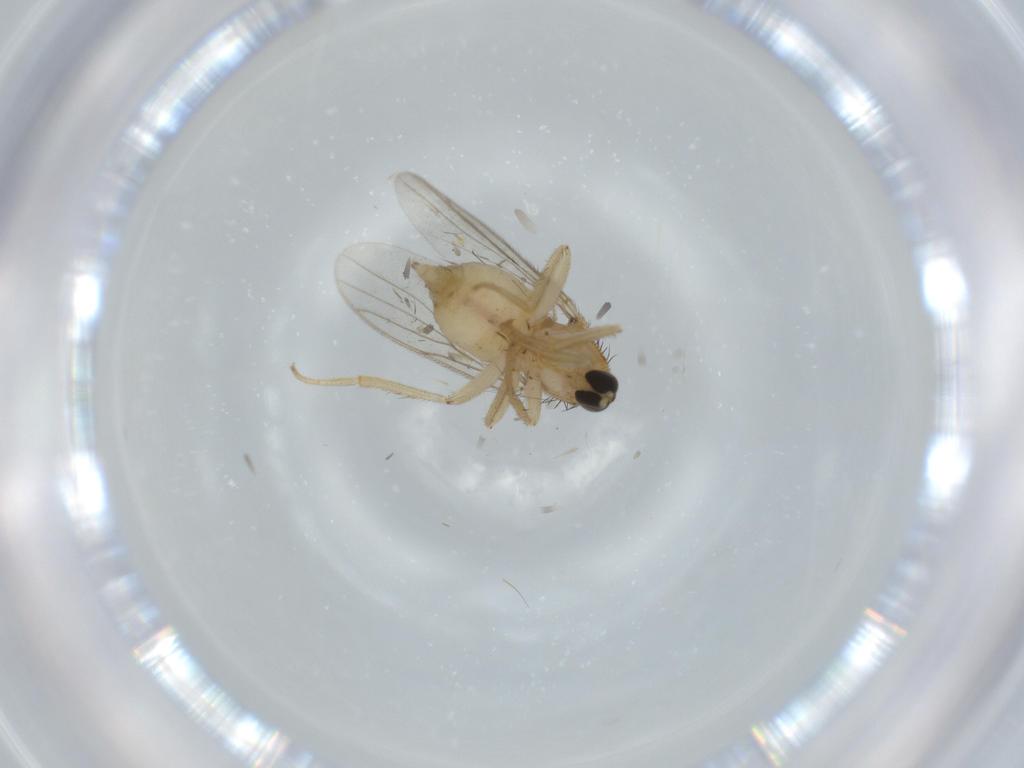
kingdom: Animalia
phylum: Arthropoda
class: Insecta
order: Diptera
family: Hybotidae
